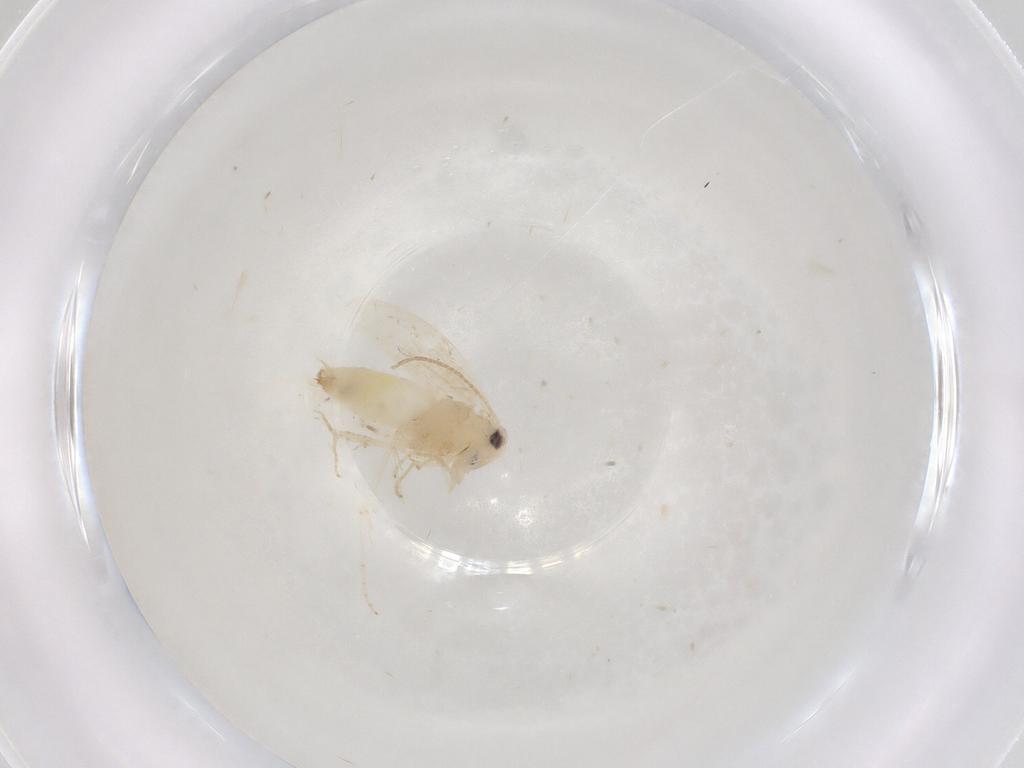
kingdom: Animalia
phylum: Arthropoda
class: Insecta
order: Lepidoptera
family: Gracillariidae
